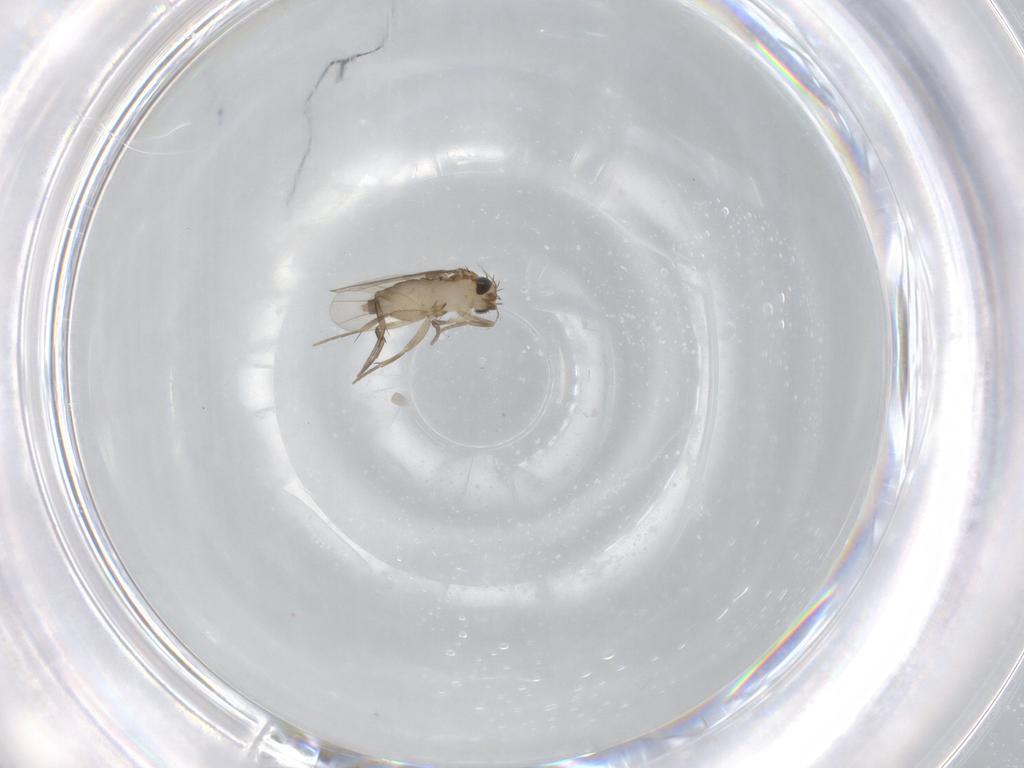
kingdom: Animalia
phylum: Arthropoda
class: Insecta
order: Diptera
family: Phoridae
